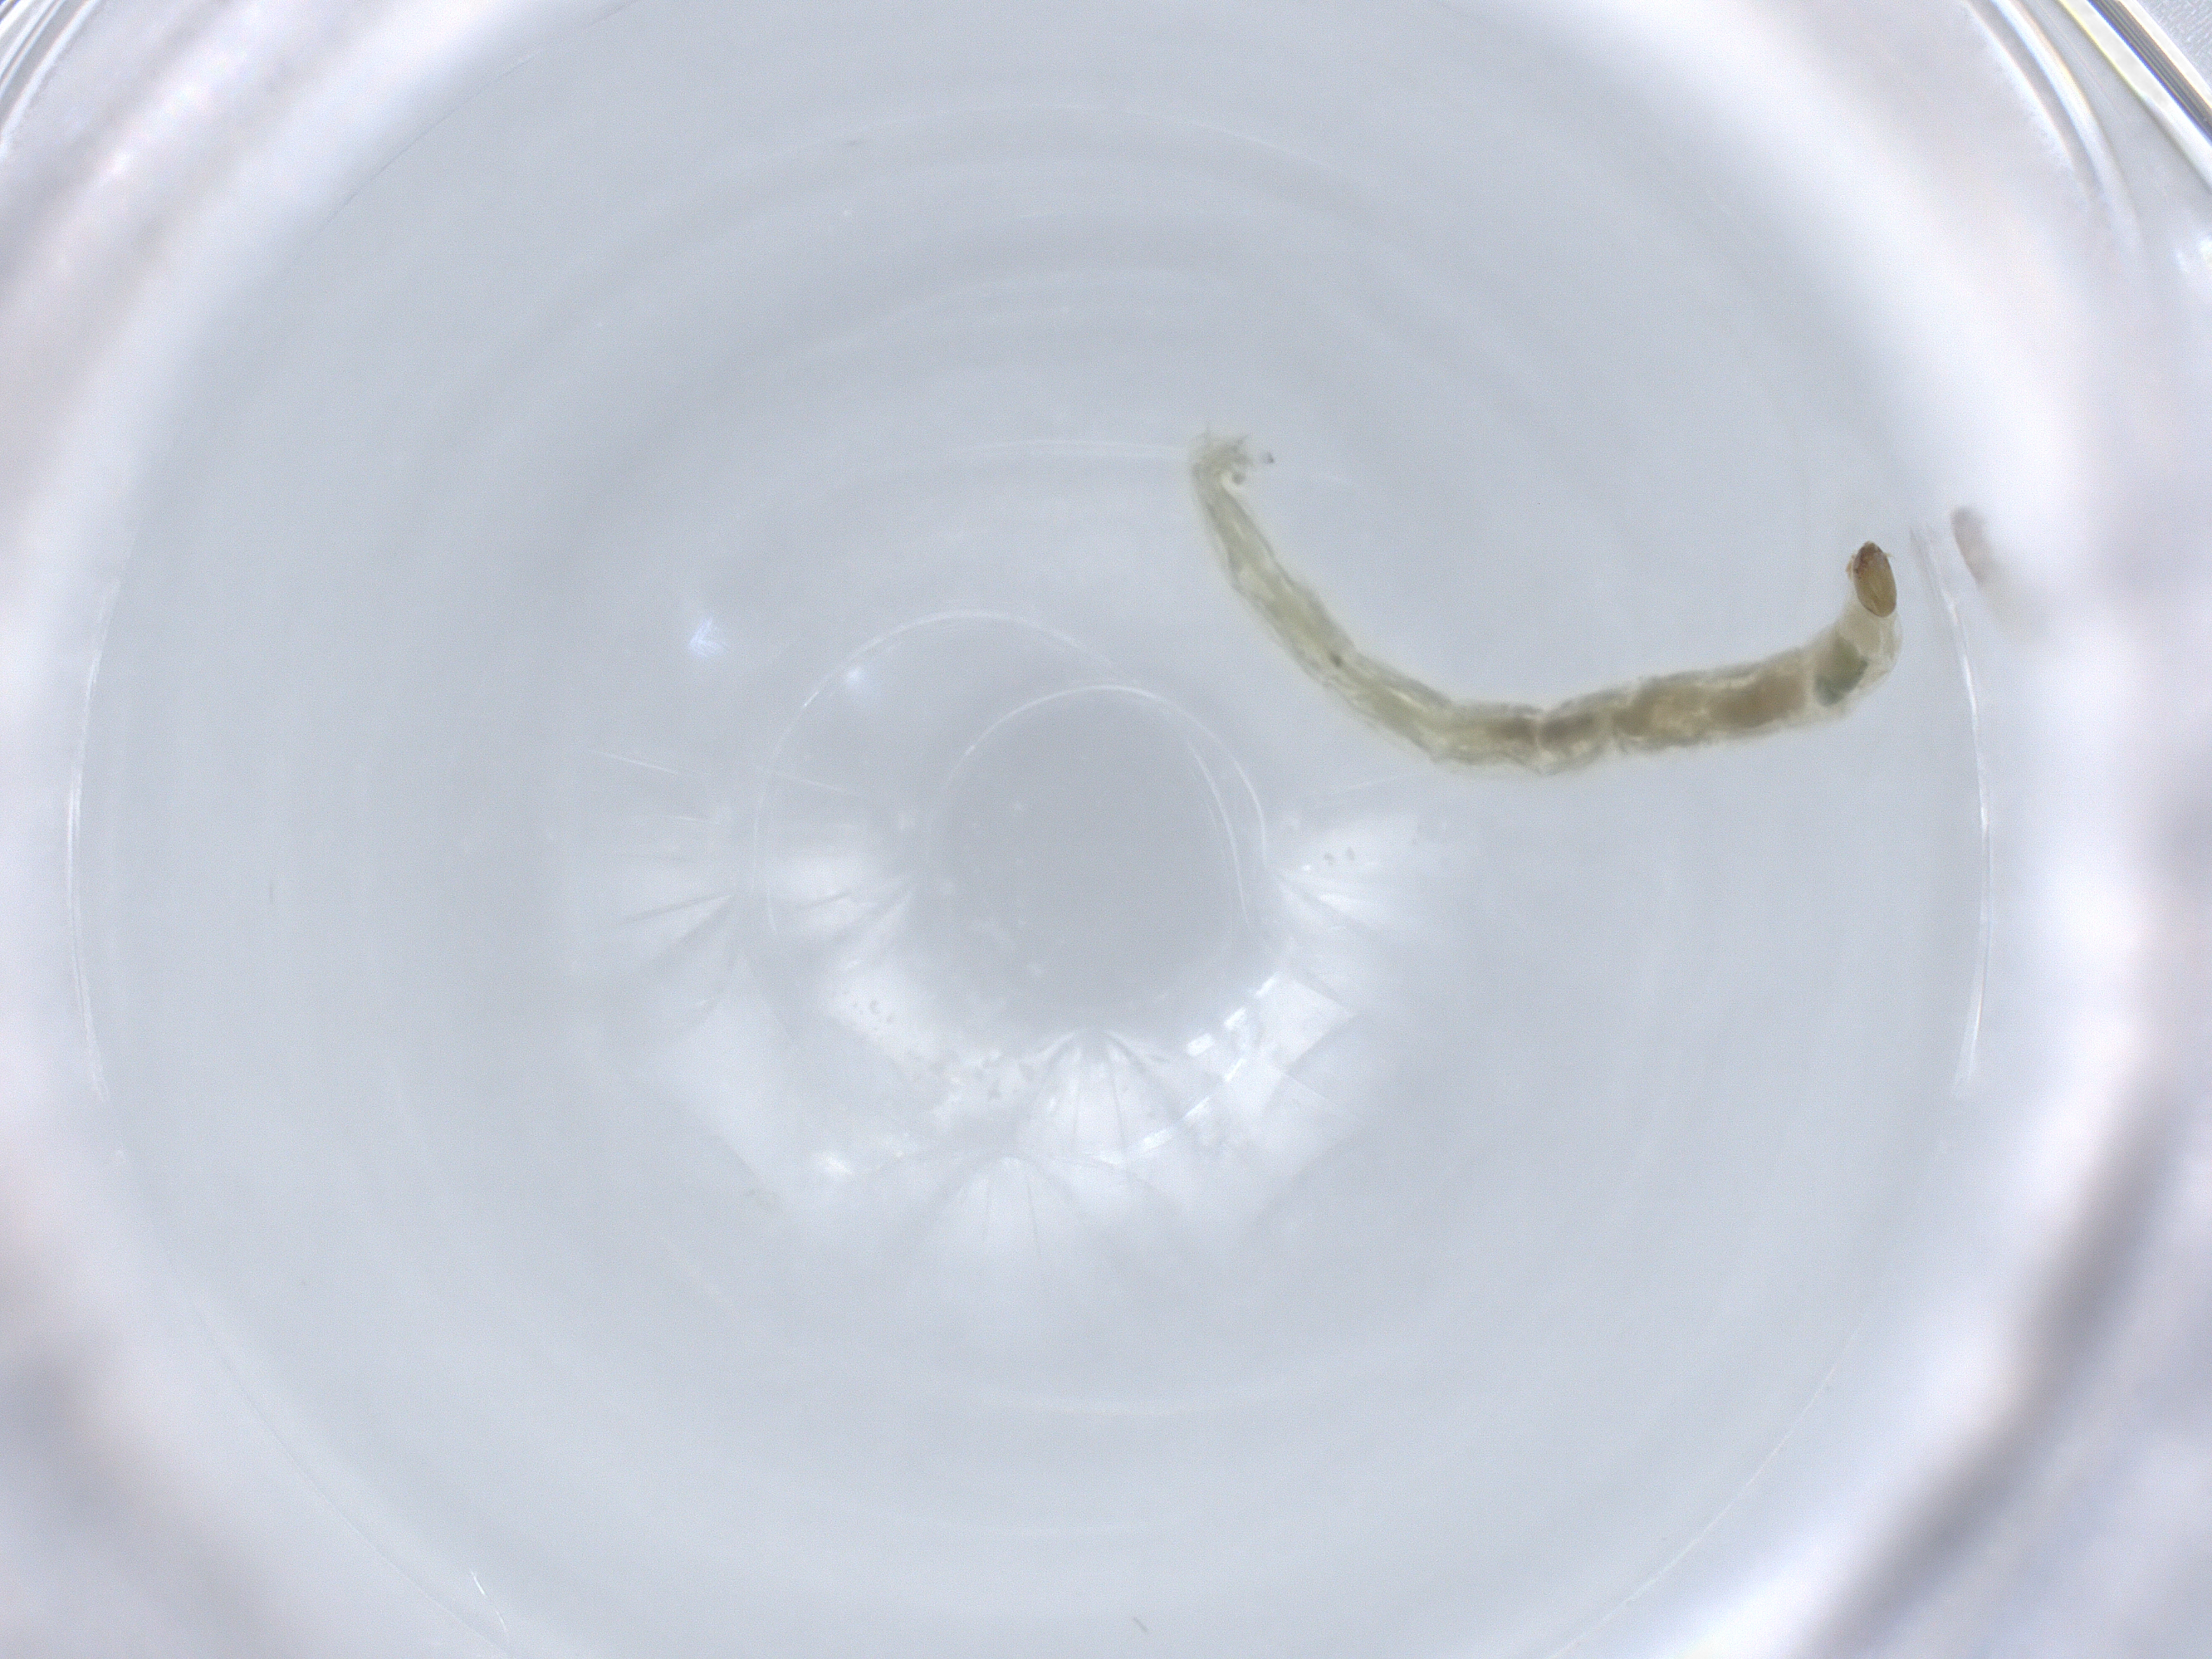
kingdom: Animalia
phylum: Arthropoda
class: Insecta
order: Diptera
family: Chironomidae
